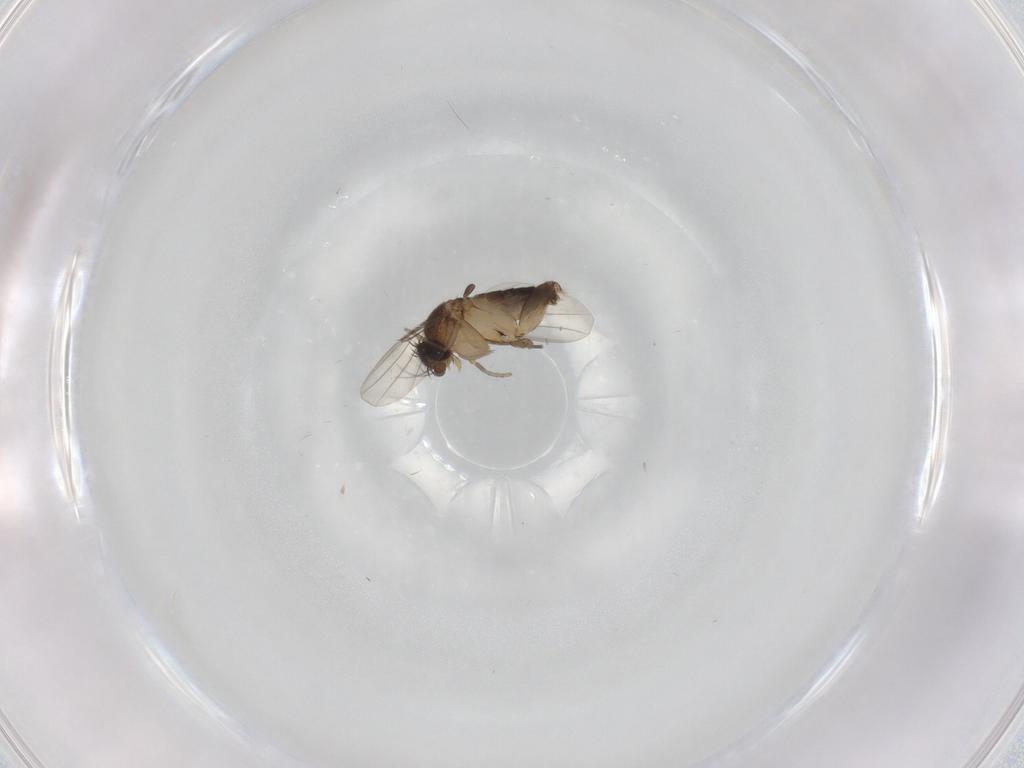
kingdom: Animalia
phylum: Arthropoda
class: Insecta
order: Diptera
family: Phoridae
